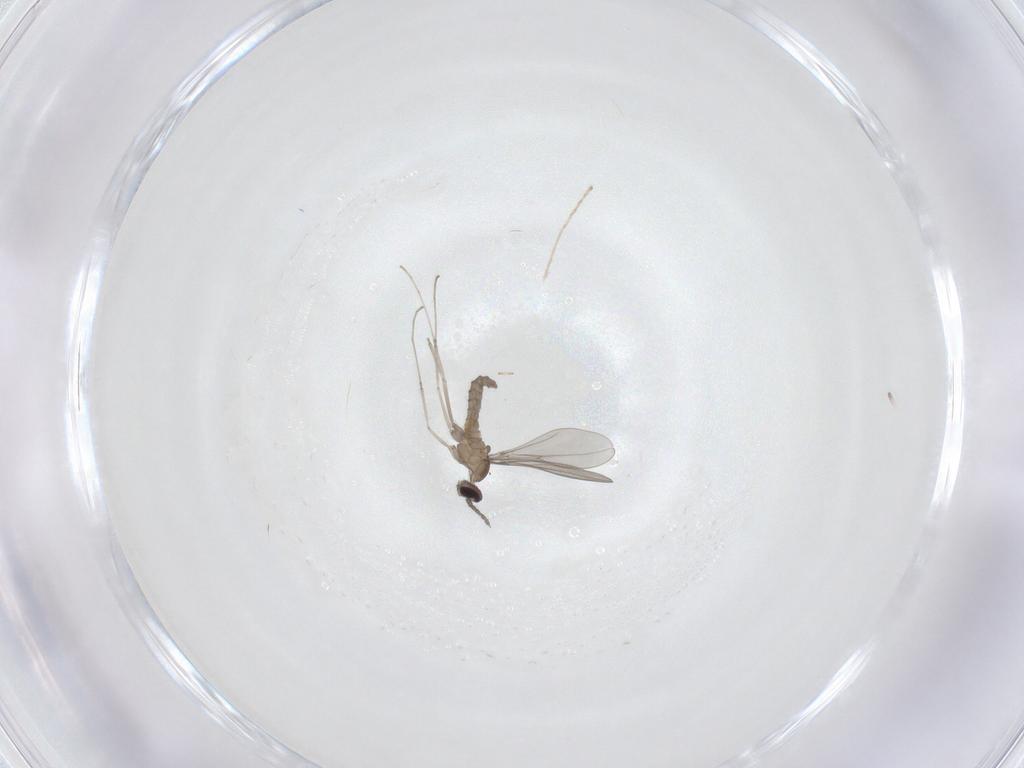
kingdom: Animalia
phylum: Arthropoda
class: Insecta
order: Diptera
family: Cecidomyiidae
